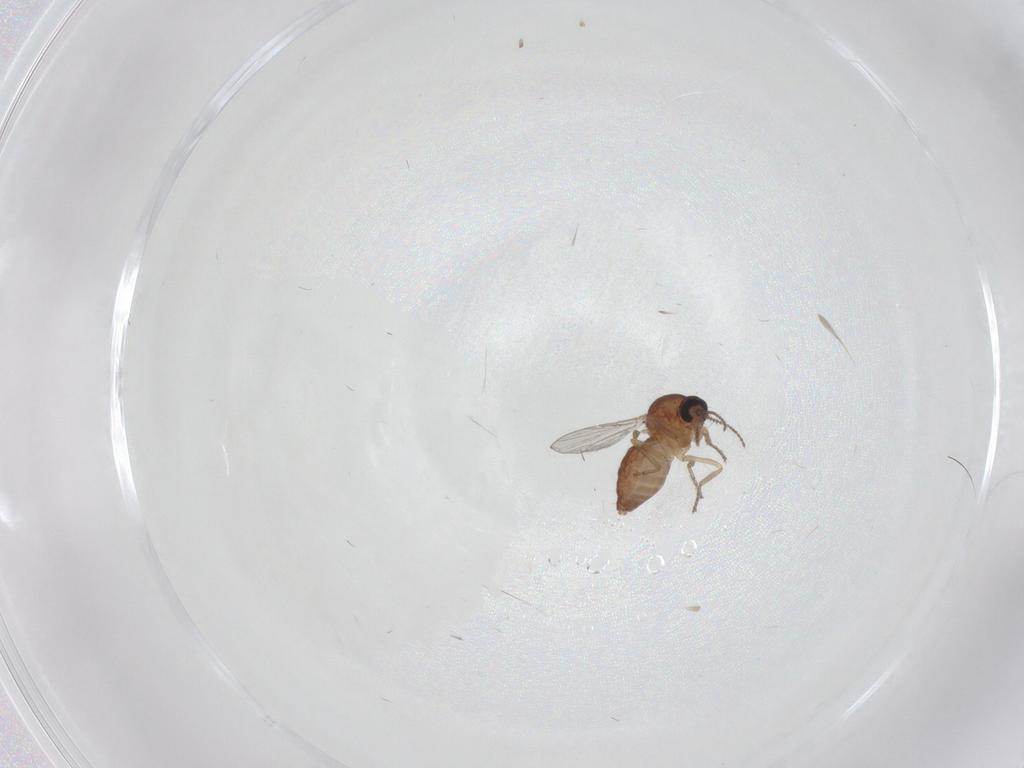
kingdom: Animalia
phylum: Arthropoda
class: Insecta
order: Diptera
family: Ceratopogonidae
